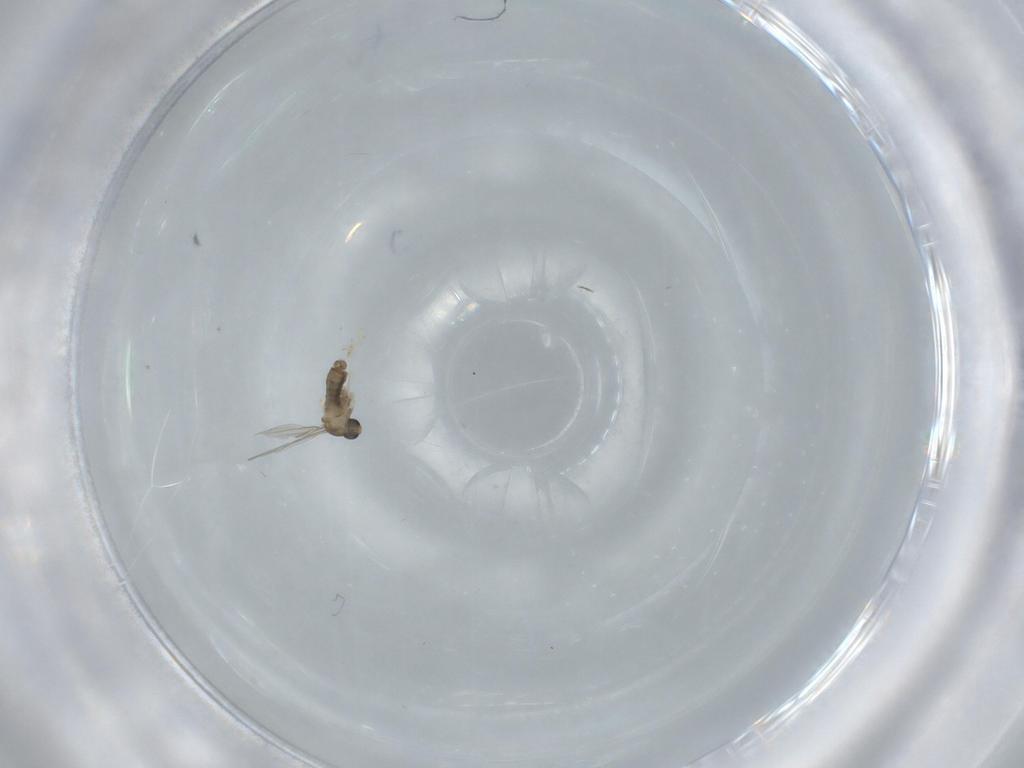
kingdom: Animalia
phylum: Arthropoda
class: Insecta
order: Diptera
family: Cecidomyiidae
